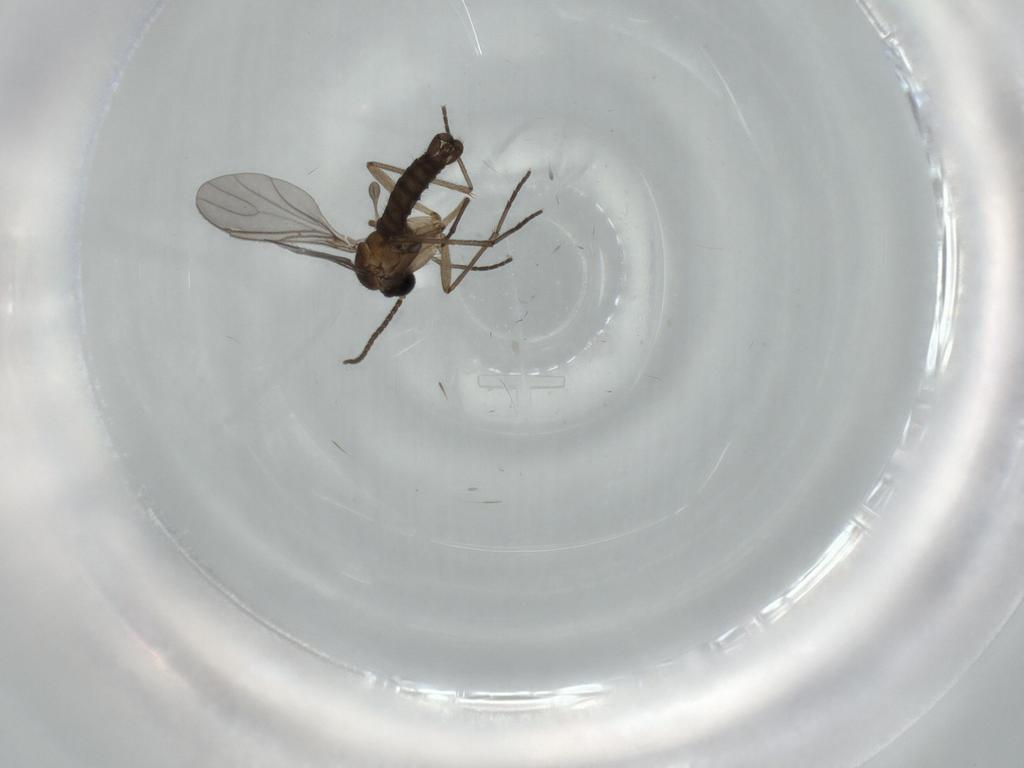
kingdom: Animalia
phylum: Arthropoda
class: Insecta
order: Diptera
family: Sciaridae
